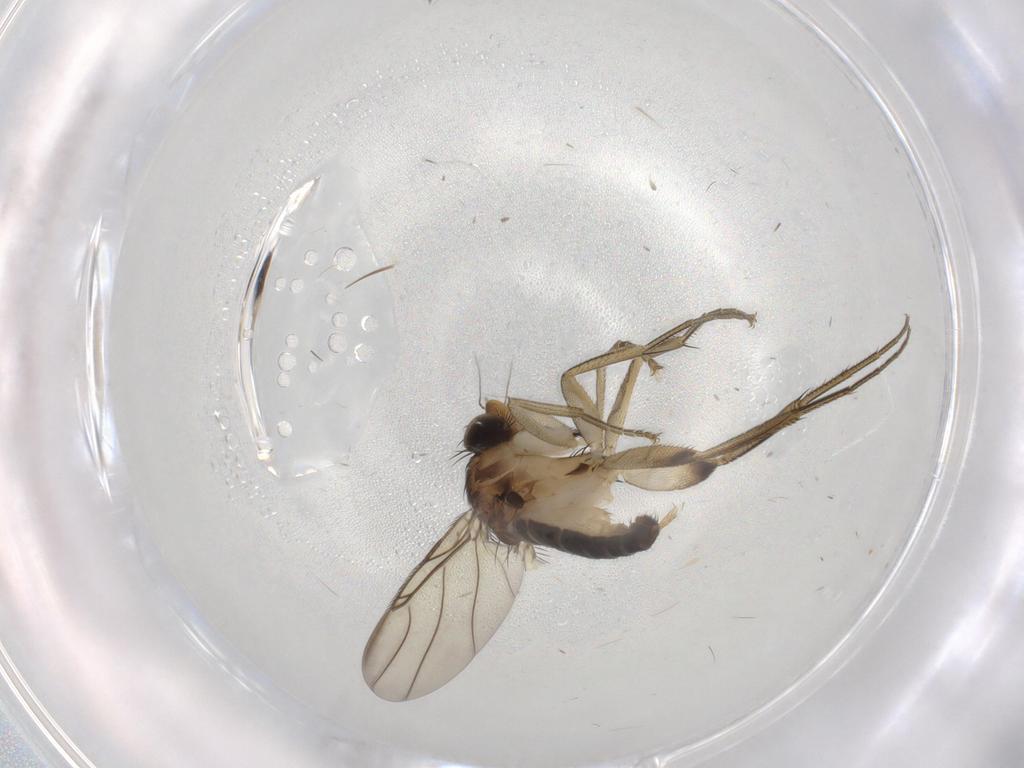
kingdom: Animalia
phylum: Arthropoda
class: Insecta
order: Diptera
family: Phoridae
